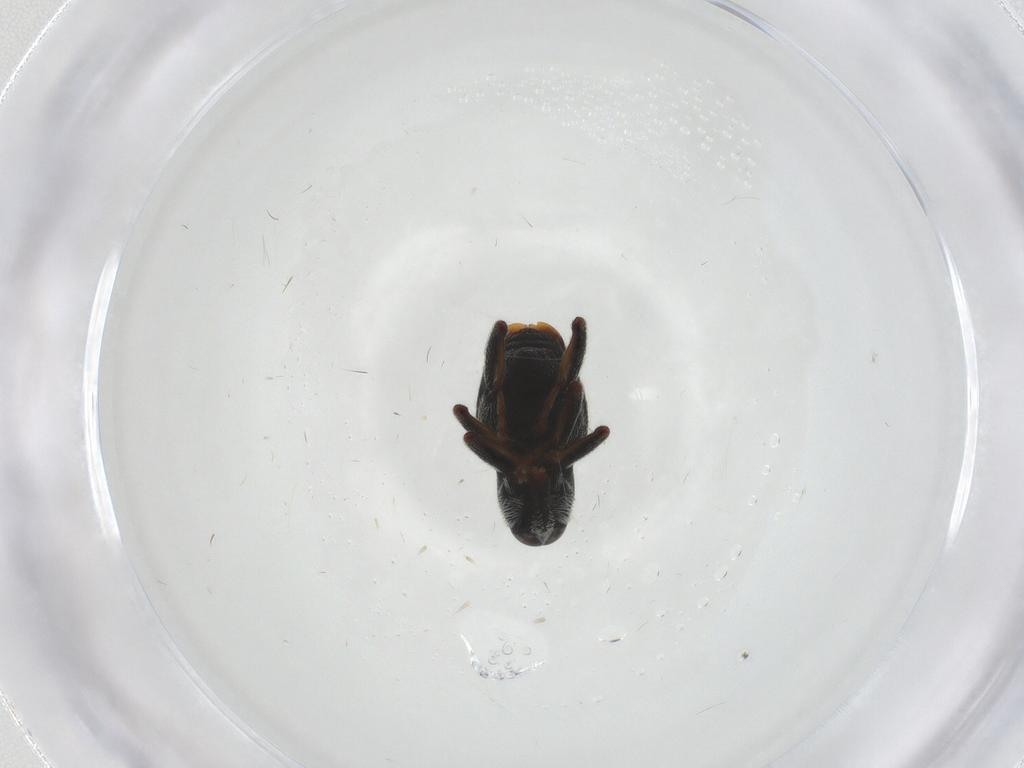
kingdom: Animalia
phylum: Arthropoda
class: Insecta
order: Coleoptera
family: Curculionidae
